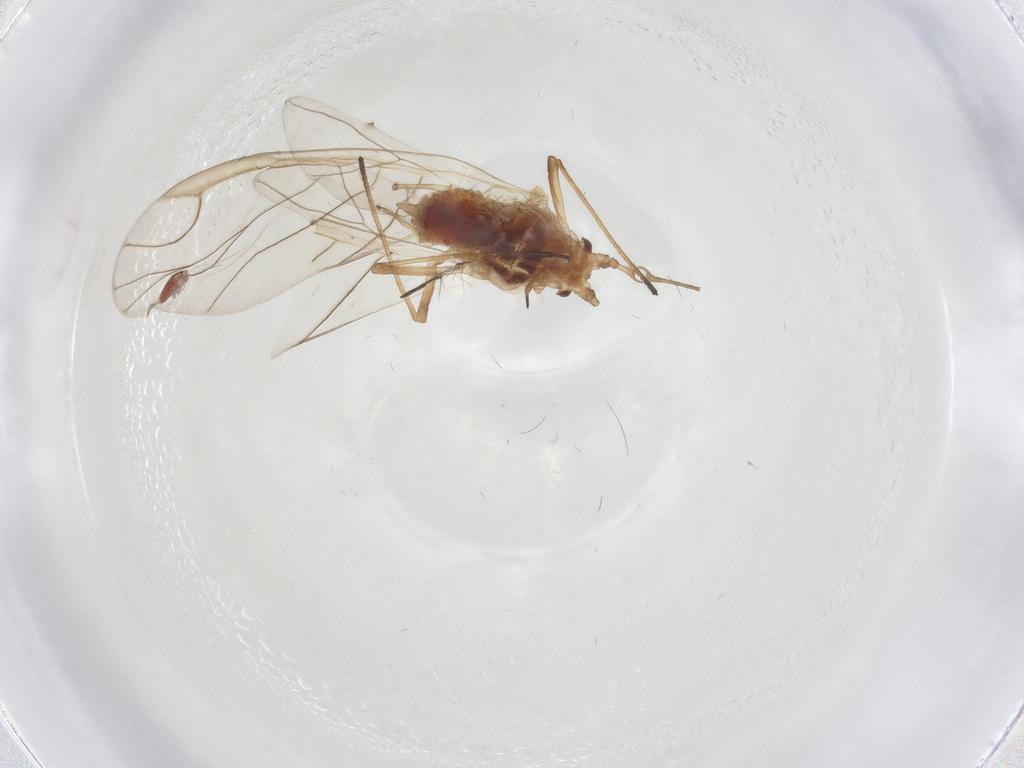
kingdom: Animalia
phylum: Arthropoda
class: Insecta
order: Hemiptera
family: Aphididae
